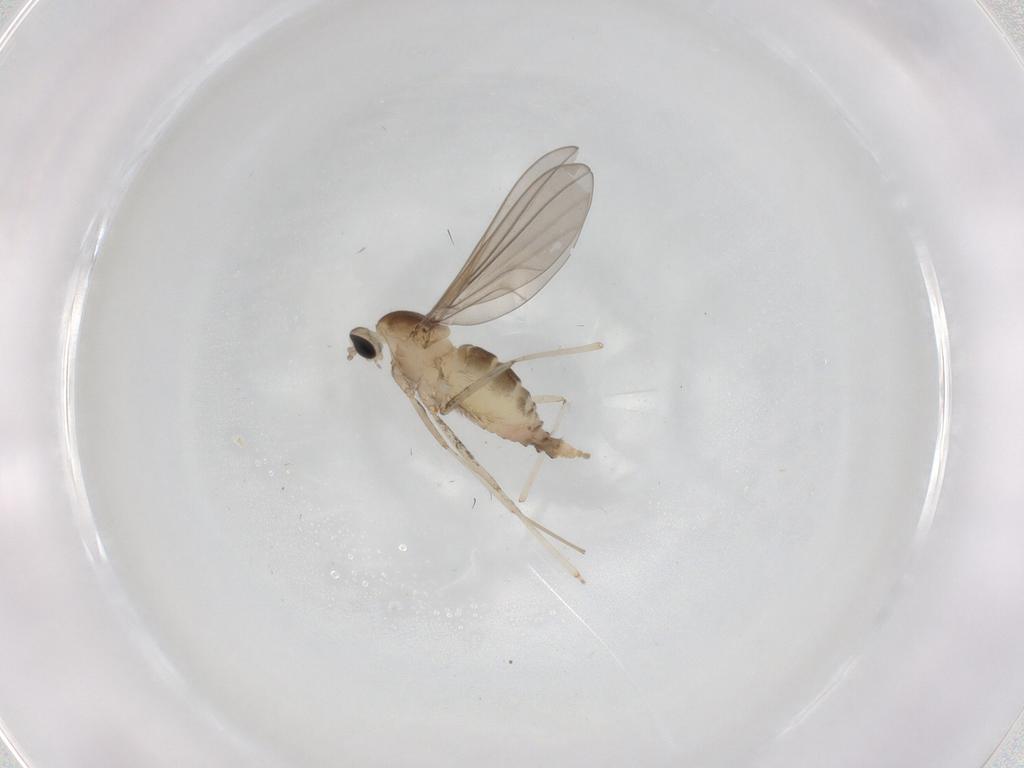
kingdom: Animalia
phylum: Arthropoda
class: Insecta
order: Diptera
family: Cecidomyiidae
